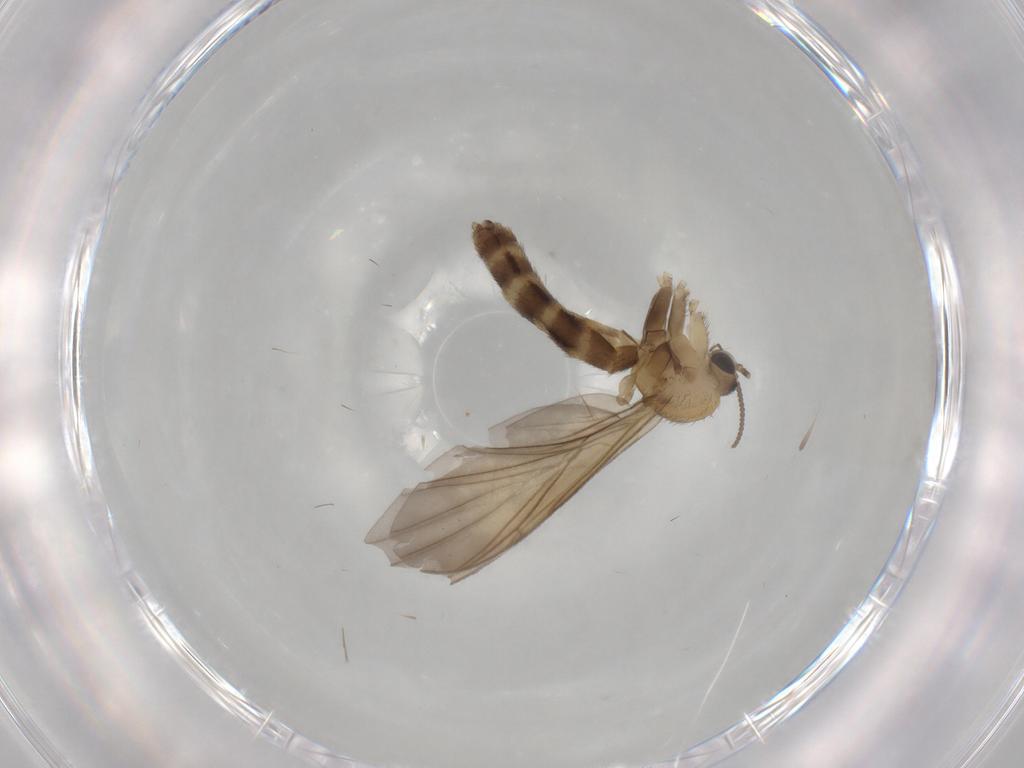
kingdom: Animalia
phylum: Arthropoda
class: Insecta
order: Diptera
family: Keroplatidae
